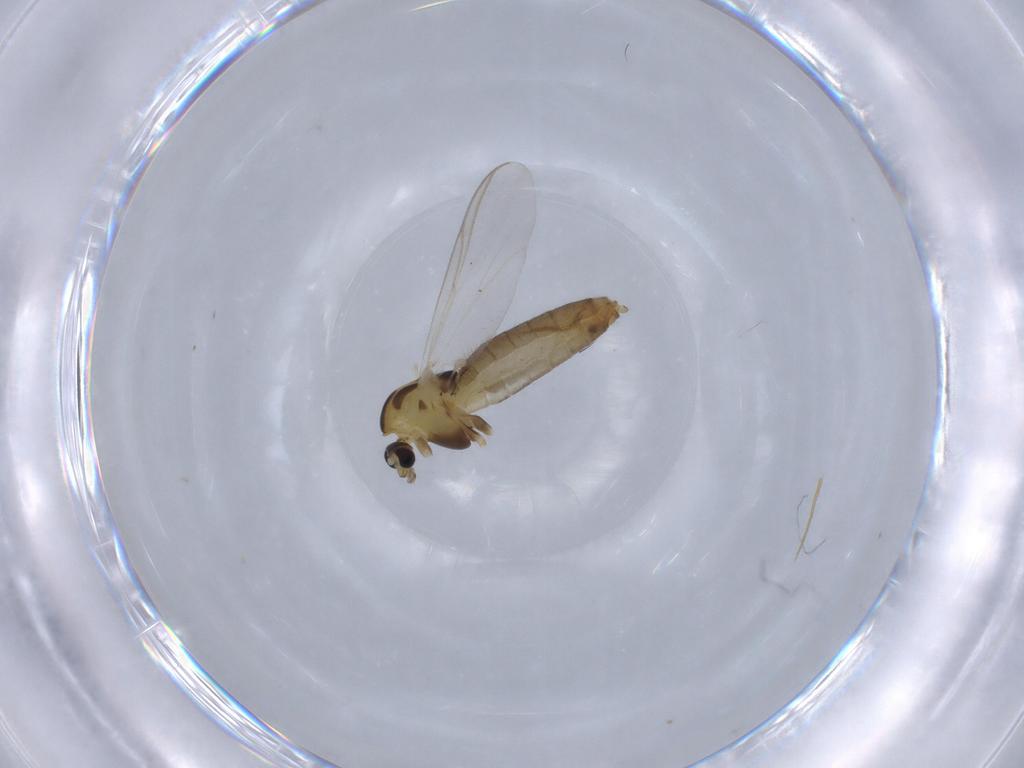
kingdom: Animalia
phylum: Arthropoda
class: Insecta
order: Diptera
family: Chironomidae
